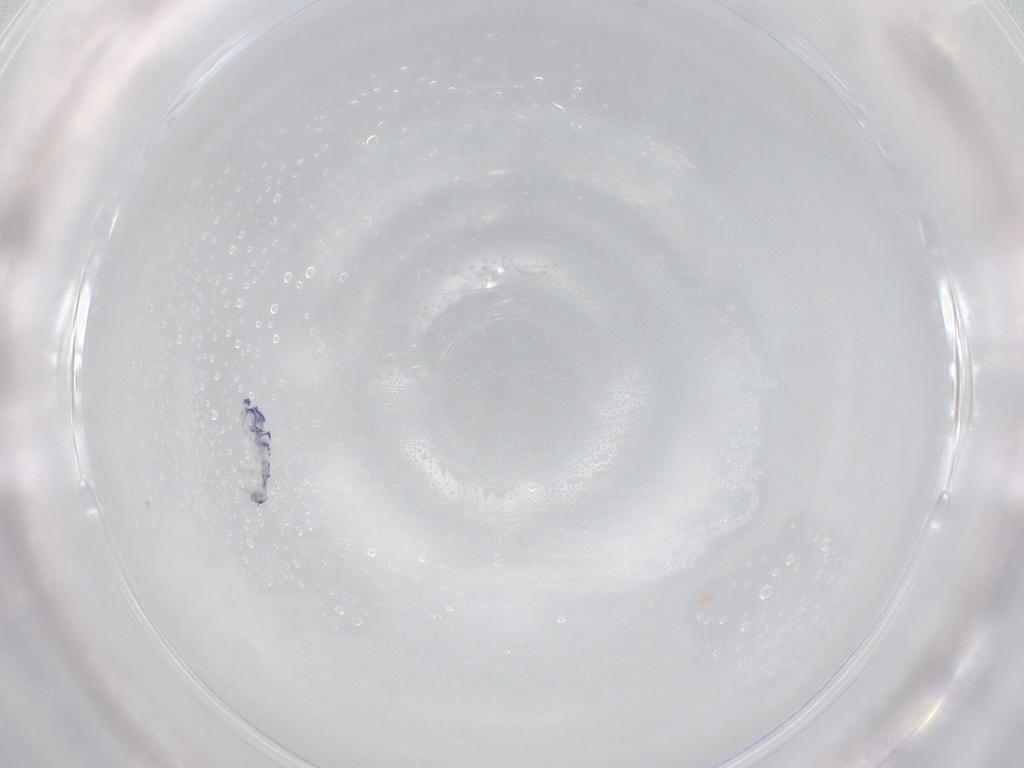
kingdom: Animalia
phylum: Arthropoda
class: Collembola
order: Entomobryomorpha
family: Entomobryidae
